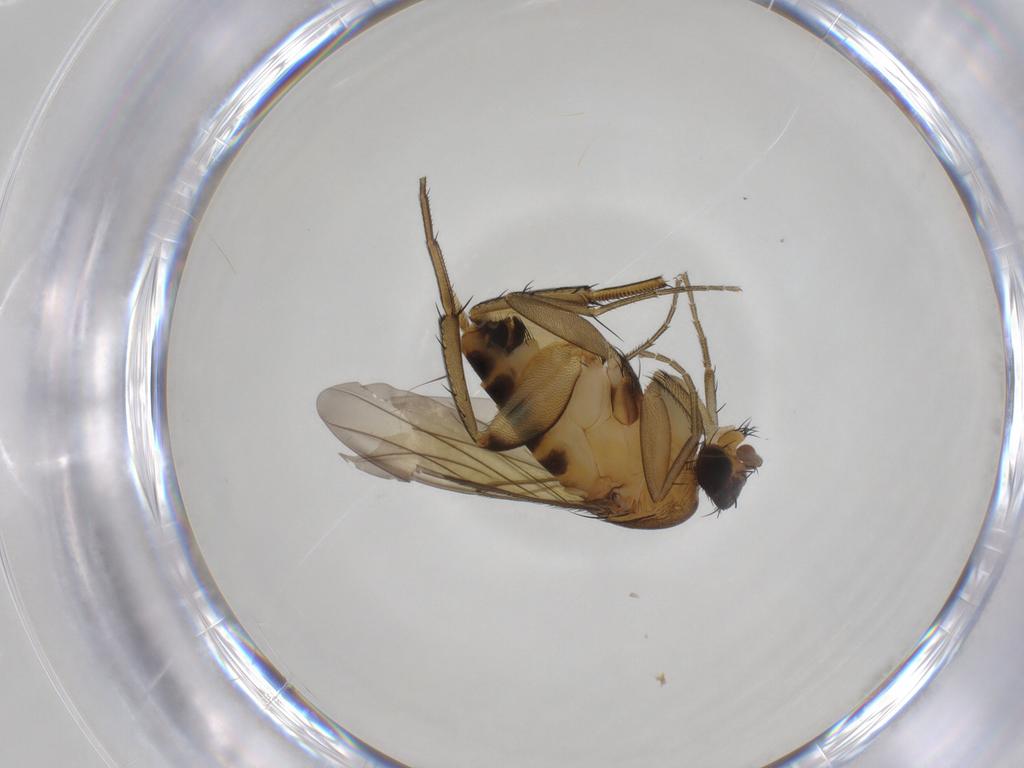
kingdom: Animalia
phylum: Arthropoda
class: Insecta
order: Diptera
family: Phoridae
